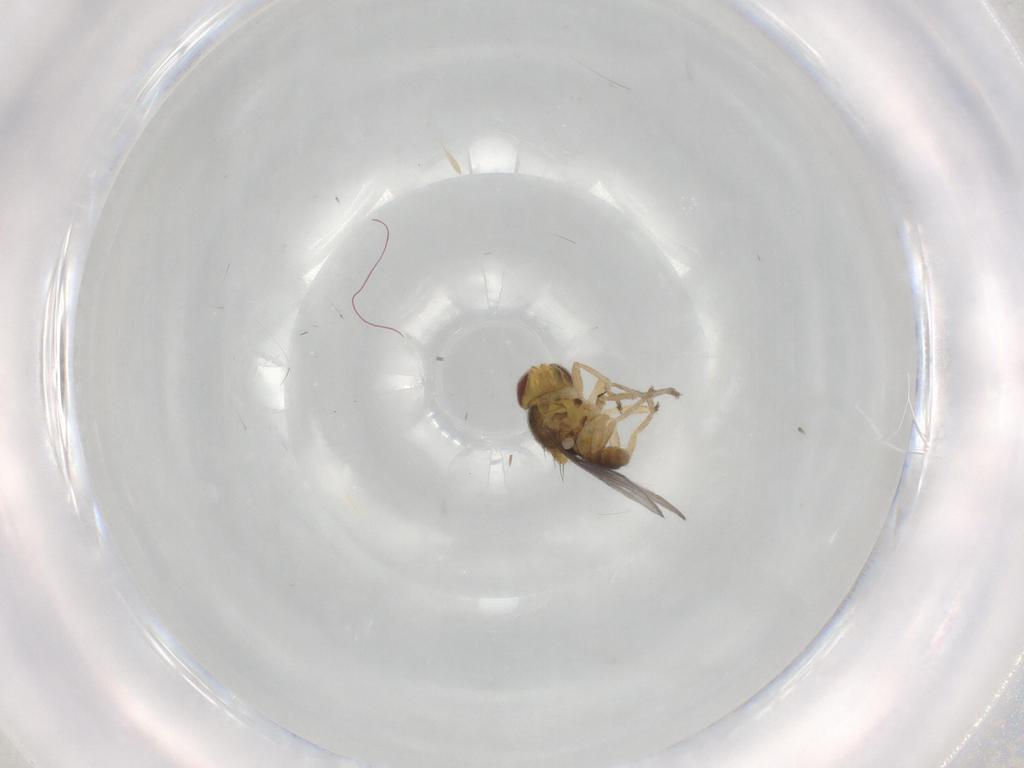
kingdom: Animalia
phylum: Arthropoda
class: Insecta
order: Diptera
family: Chloropidae
